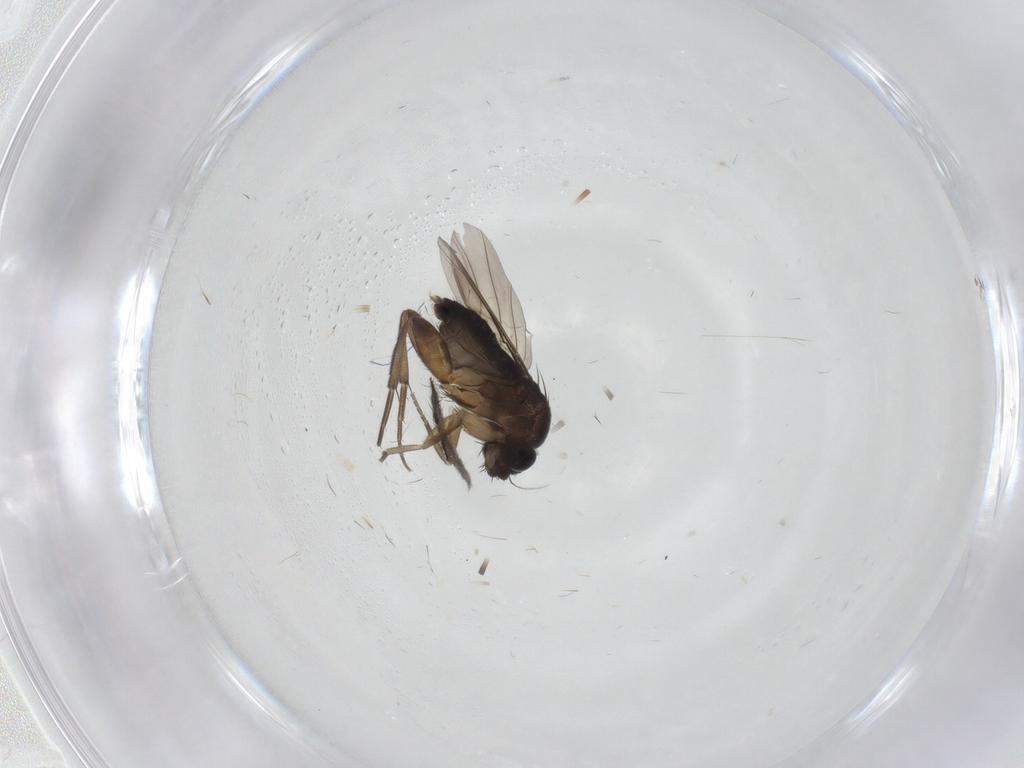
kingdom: Animalia
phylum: Arthropoda
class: Insecta
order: Diptera
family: Phoridae
